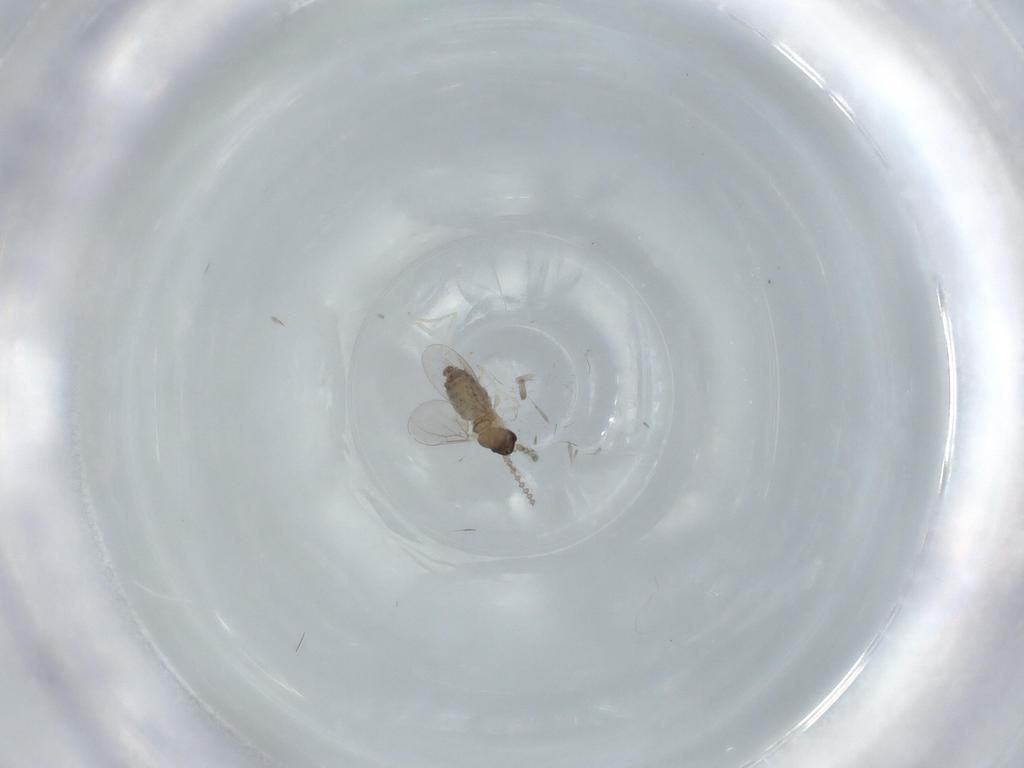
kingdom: Animalia
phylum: Arthropoda
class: Insecta
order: Diptera
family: Cecidomyiidae
